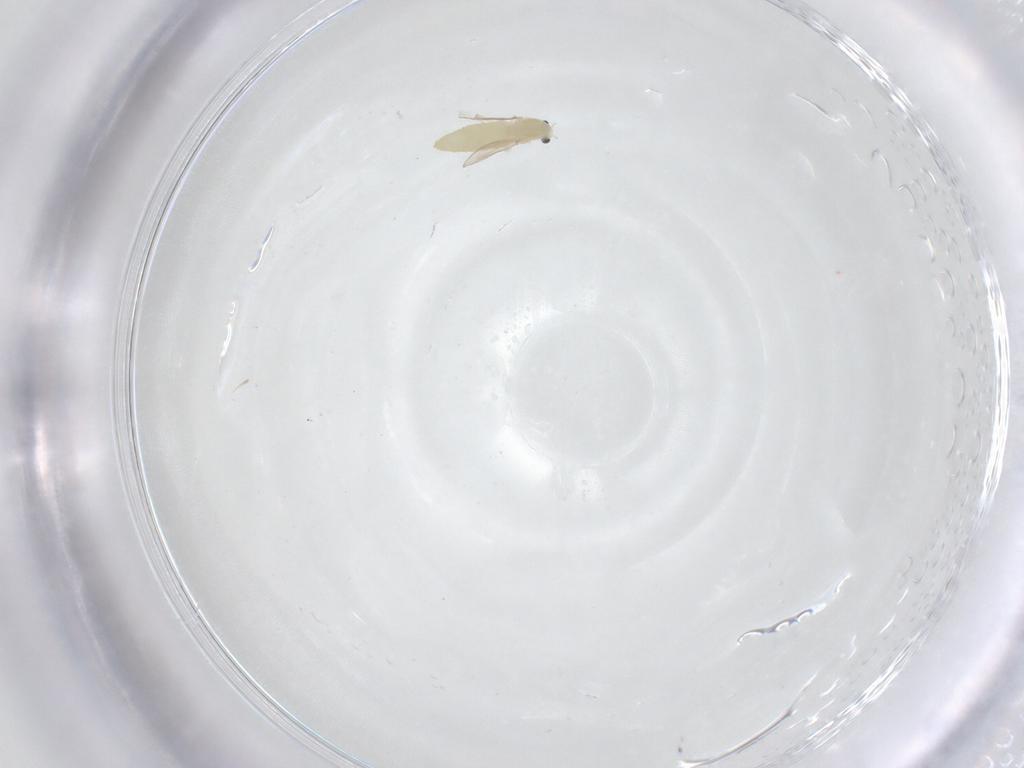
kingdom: Animalia
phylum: Arthropoda
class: Insecta
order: Diptera
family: Chironomidae
